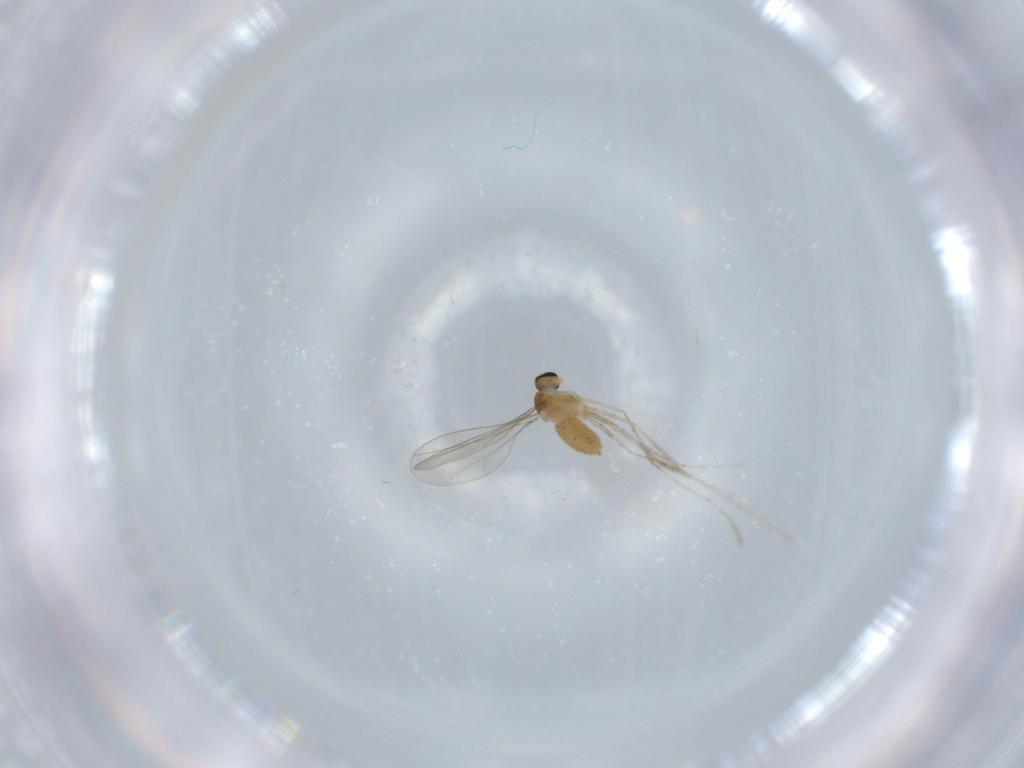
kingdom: Animalia
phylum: Arthropoda
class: Insecta
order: Diptera
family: Cecidomyiidae
